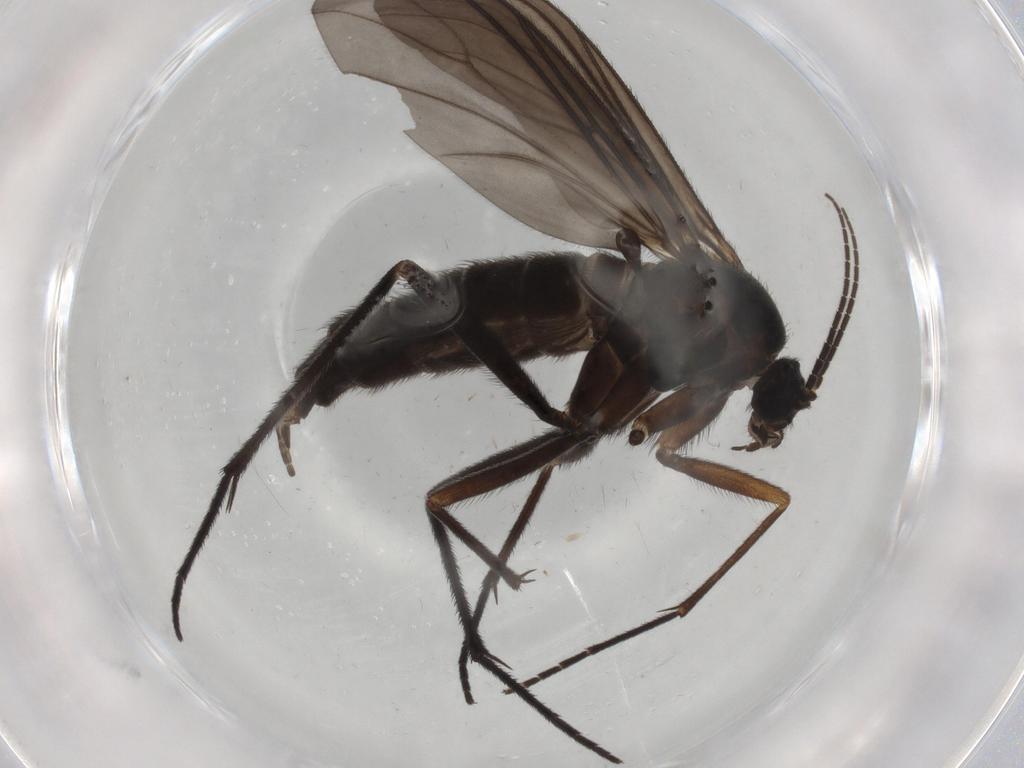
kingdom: Animalia
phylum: Arthropoda
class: Insecta
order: Diptera
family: Sciaridae
